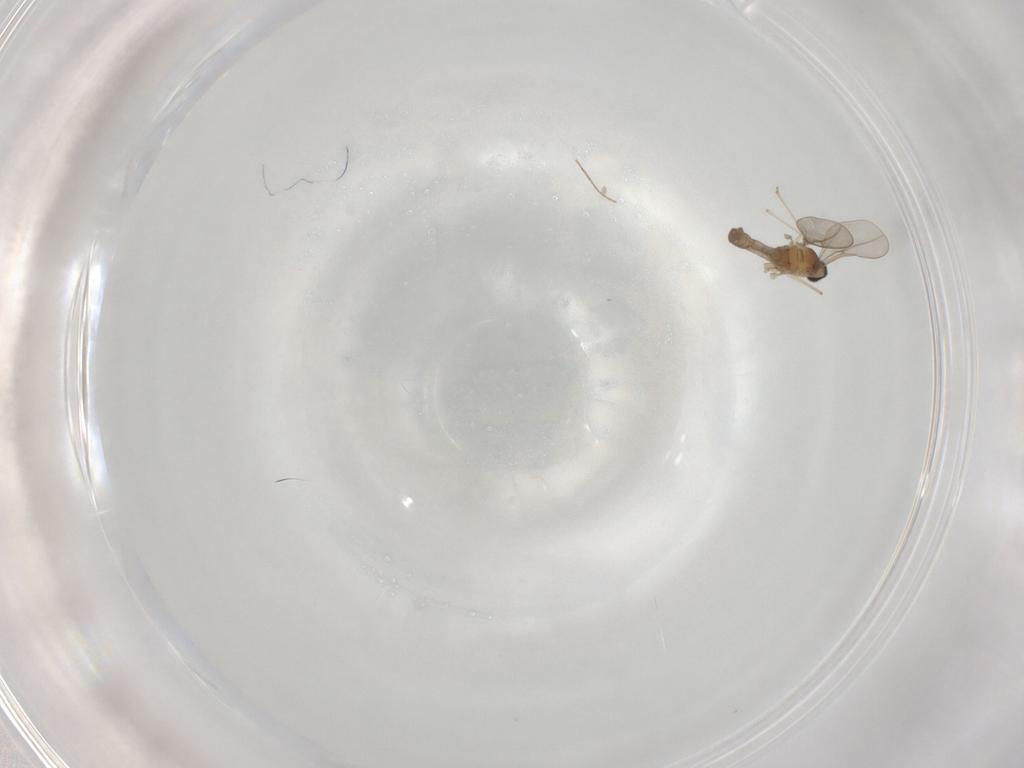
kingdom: Animalia
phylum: Arthropoda
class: Insecta
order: Diptera
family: Cecidomyiidae
